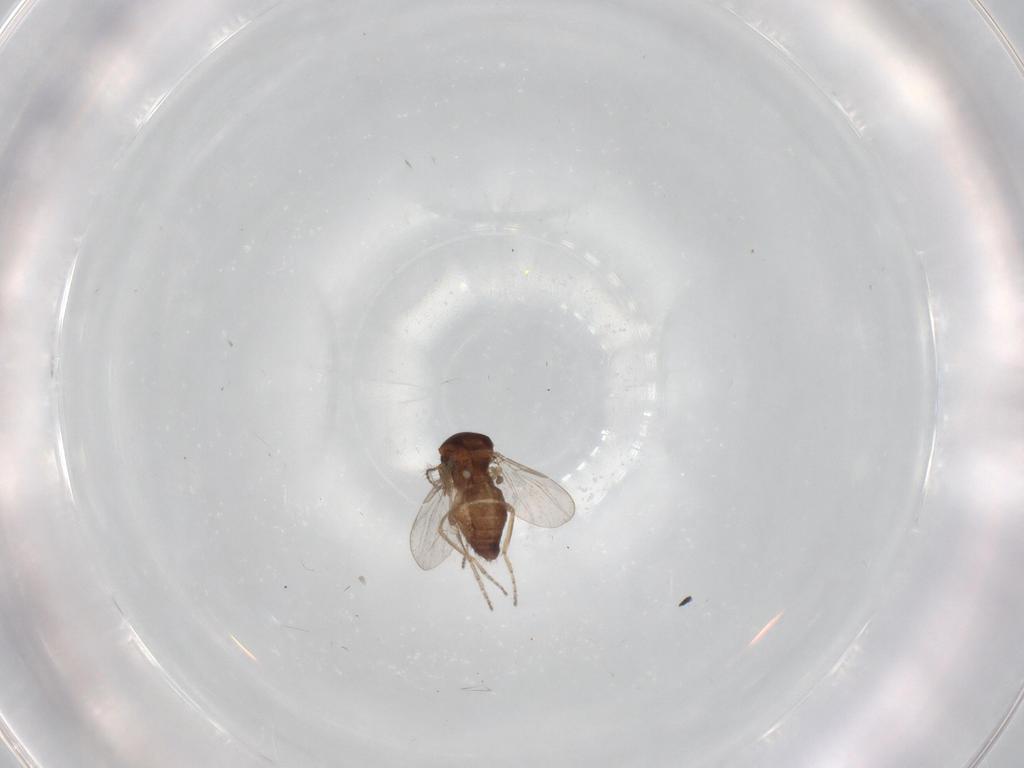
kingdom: Animalia
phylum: Arthropoda
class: Insecta
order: Diptera
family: Ceratopogonidae
